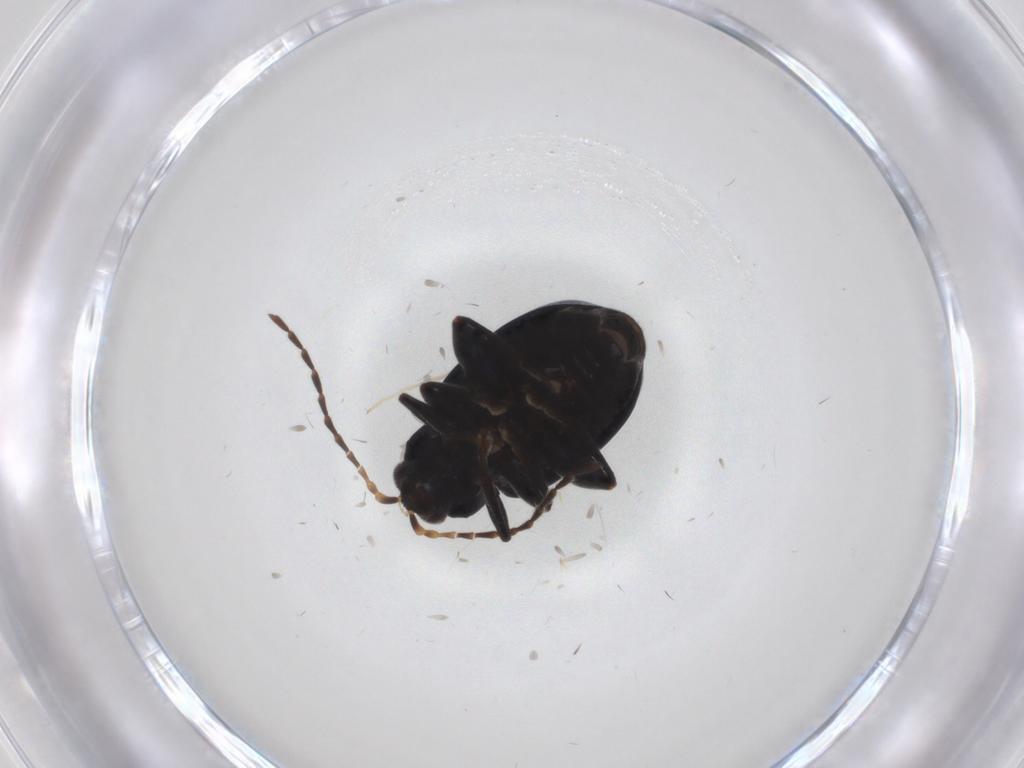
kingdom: Animalia
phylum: Arthropoda
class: Insecta
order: Coleoptera
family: Chrysomelidae
